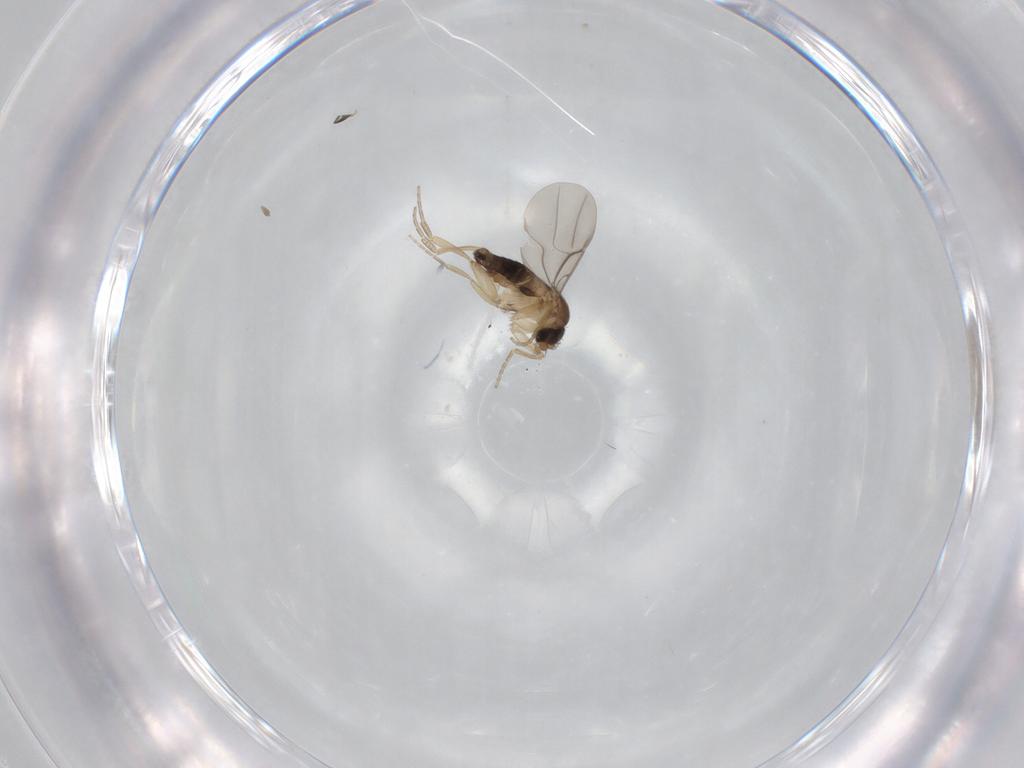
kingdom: Animalia
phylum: Arthropoda
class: Insecta
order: Diptera
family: Phoridae
